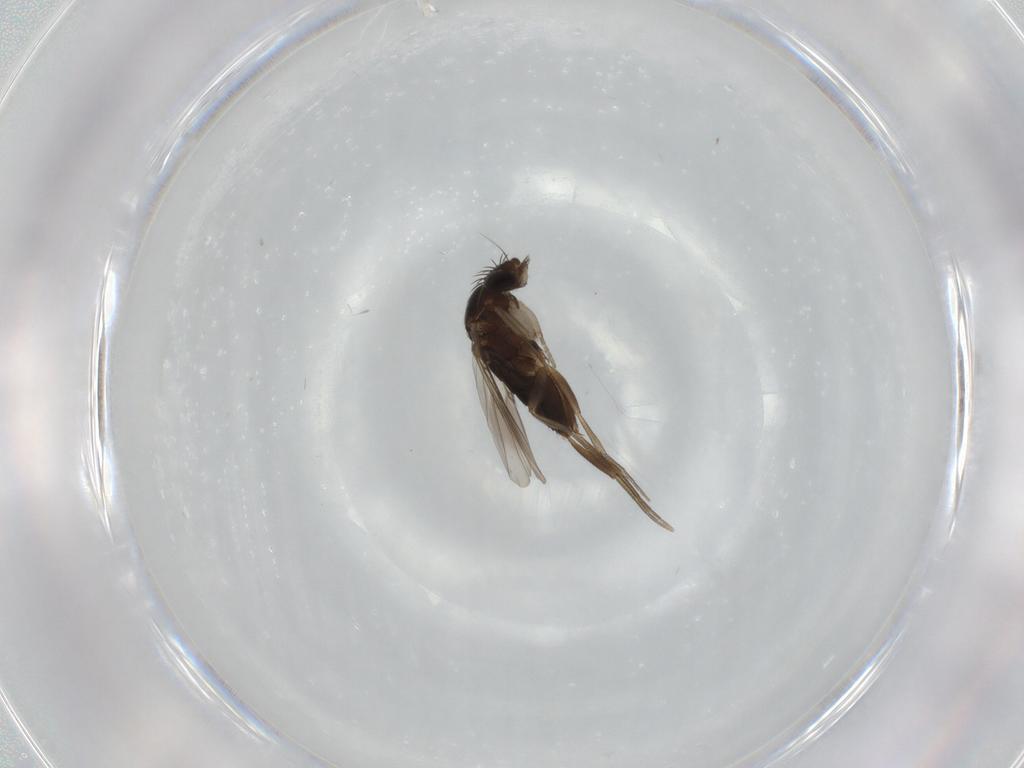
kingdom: Animalia
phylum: Arthropoda
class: Insecta
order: Diptera
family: Phoridae
